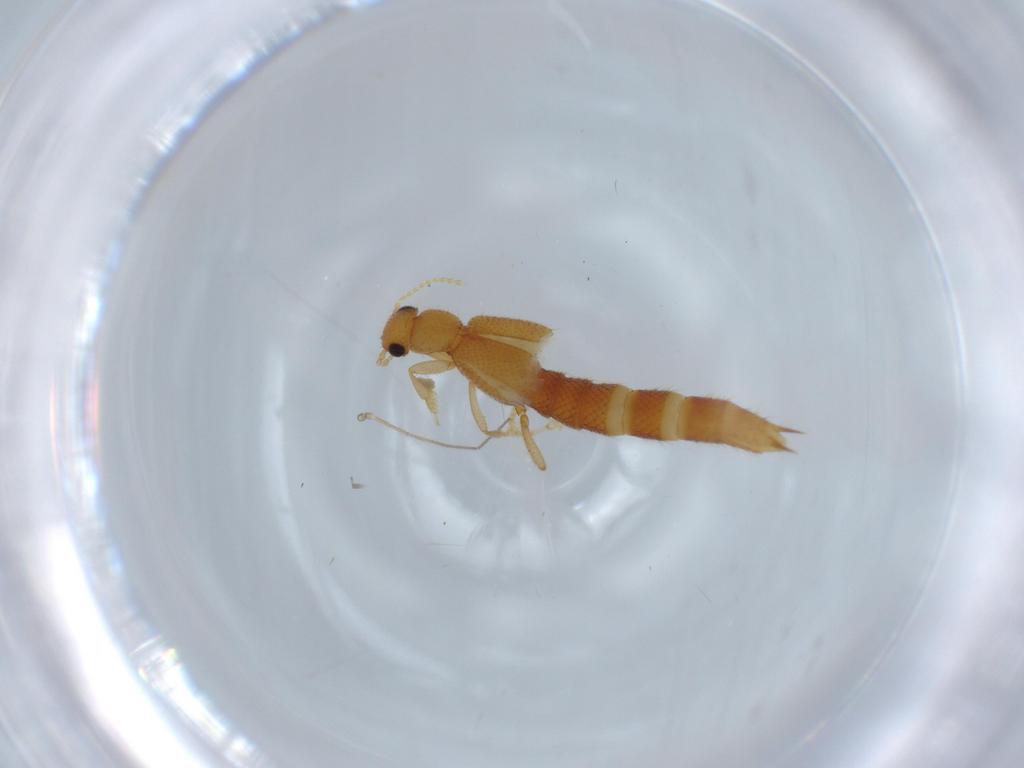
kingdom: Animalia
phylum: Arthropoda
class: Insecta
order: Coleoptera
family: Staphylinidae
